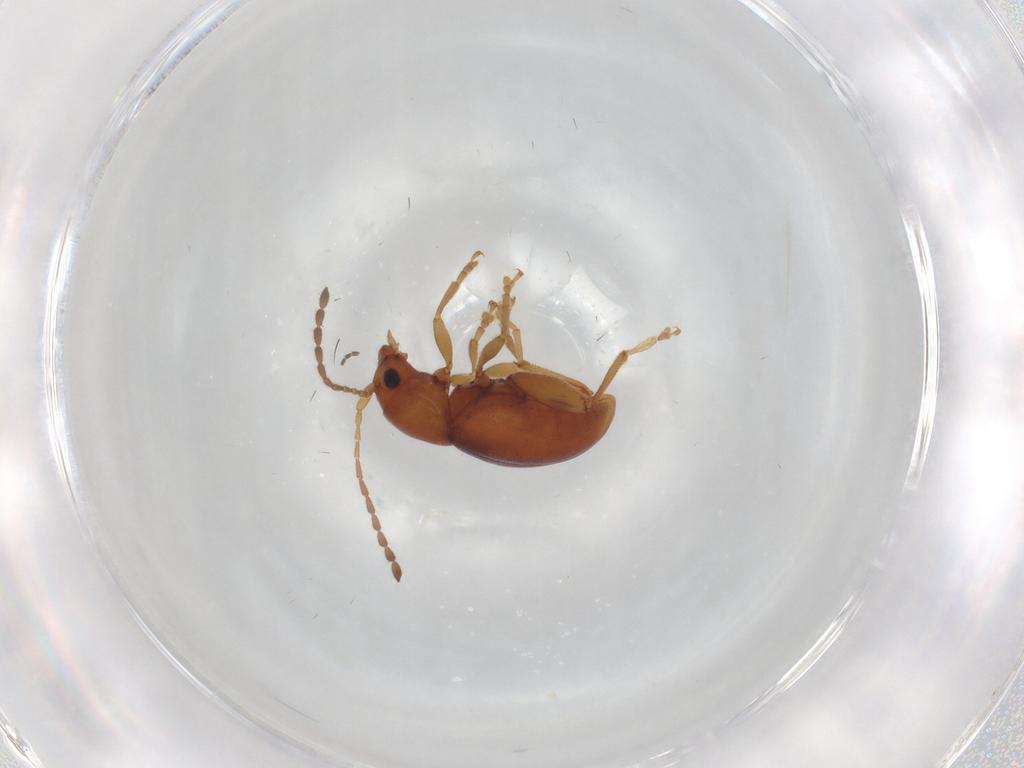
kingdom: Animalia
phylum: Arthropoda
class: Insecta
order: Coleoptera
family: Chrysomelidae
